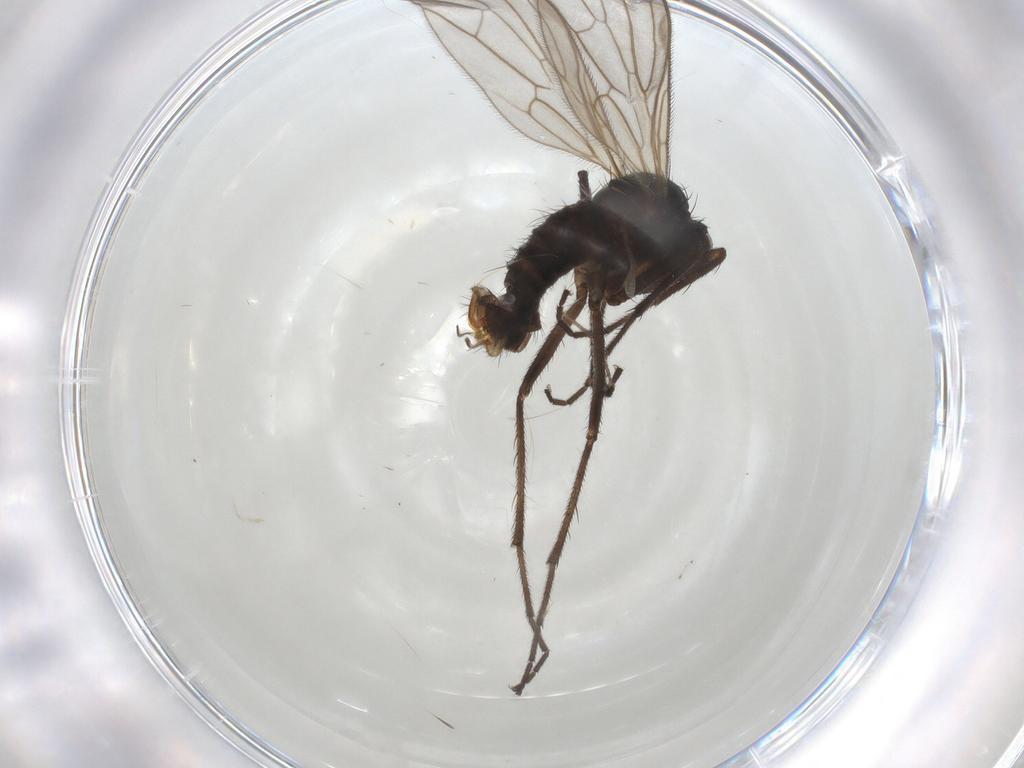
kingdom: Animalia
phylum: Arthropoda
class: Insecta
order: Diptera
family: Empididae
